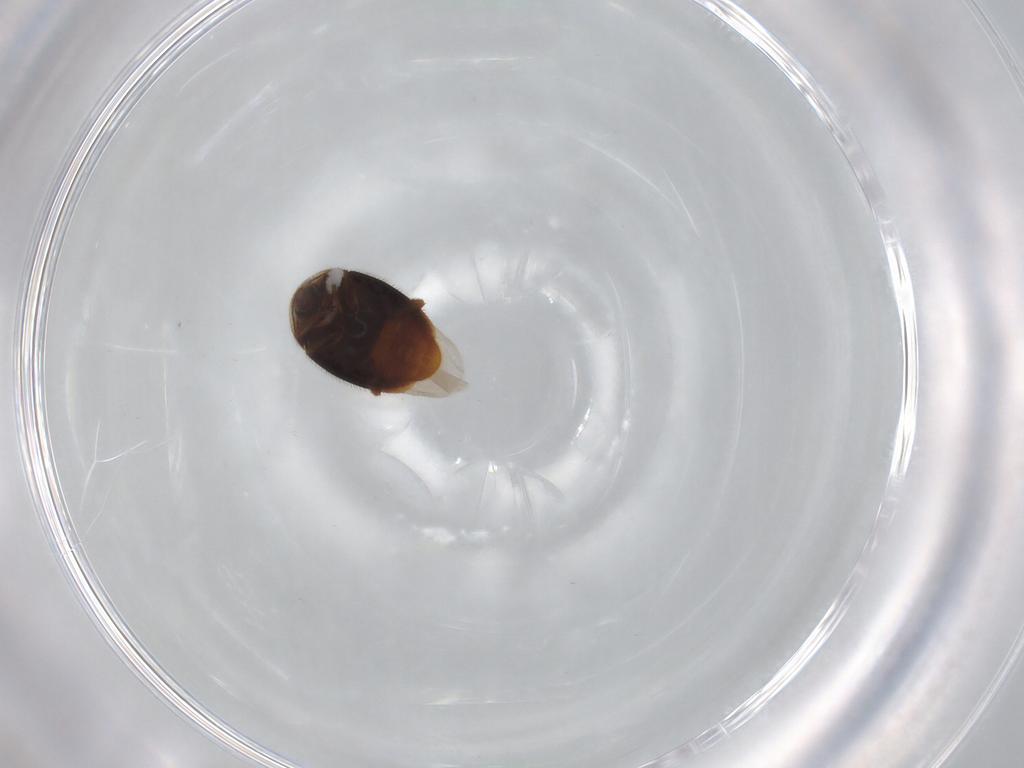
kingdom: Animalia
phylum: Arthropoda
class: Insecta
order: Coleoptera
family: Corylophidae
